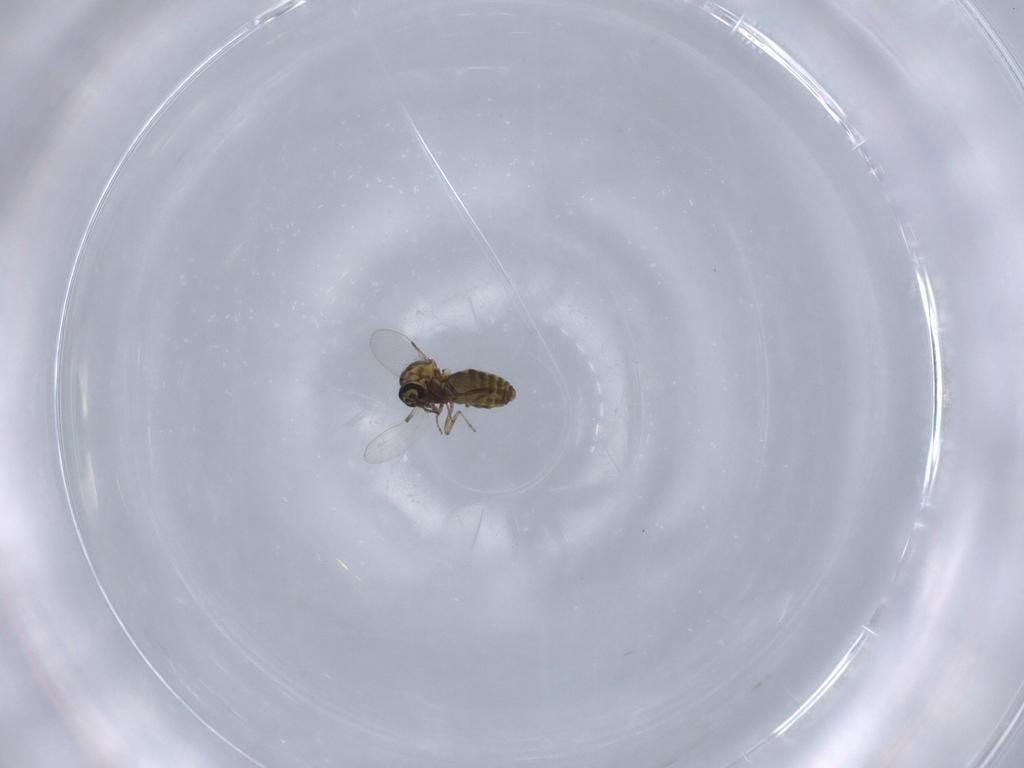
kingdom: Animalia
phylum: Arthropoda
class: Insecta
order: Diptera
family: Ceratopogonidae
